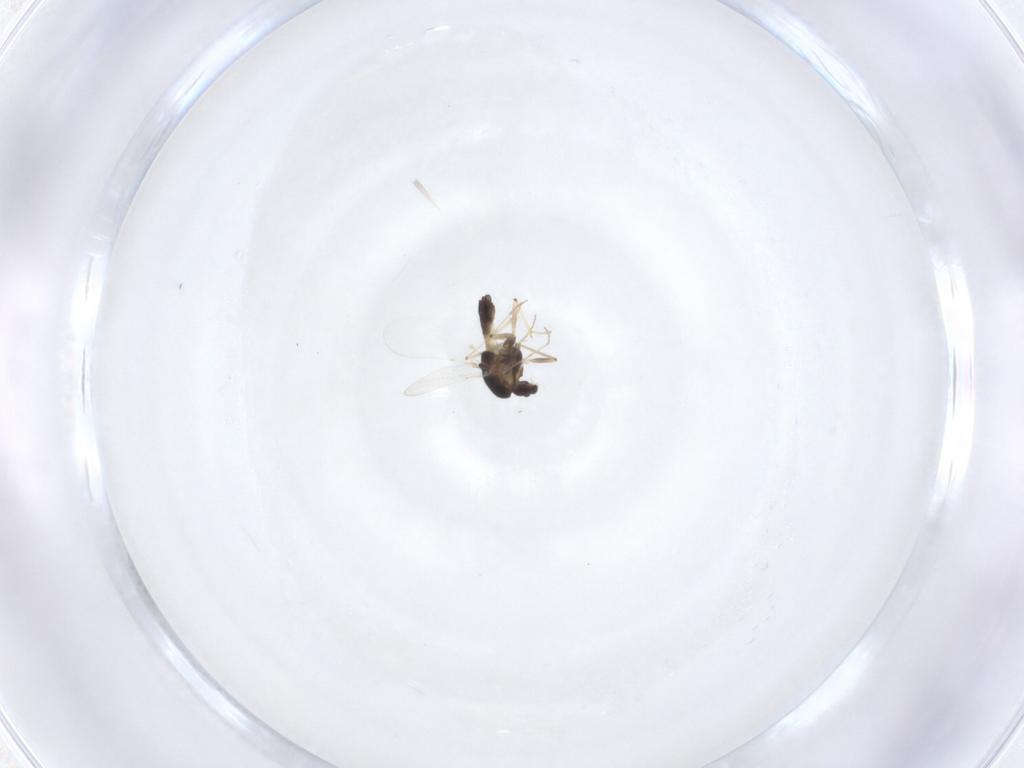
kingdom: Animalia
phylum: Arthropoda
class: Insecta
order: Diptera
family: Chironomidae
